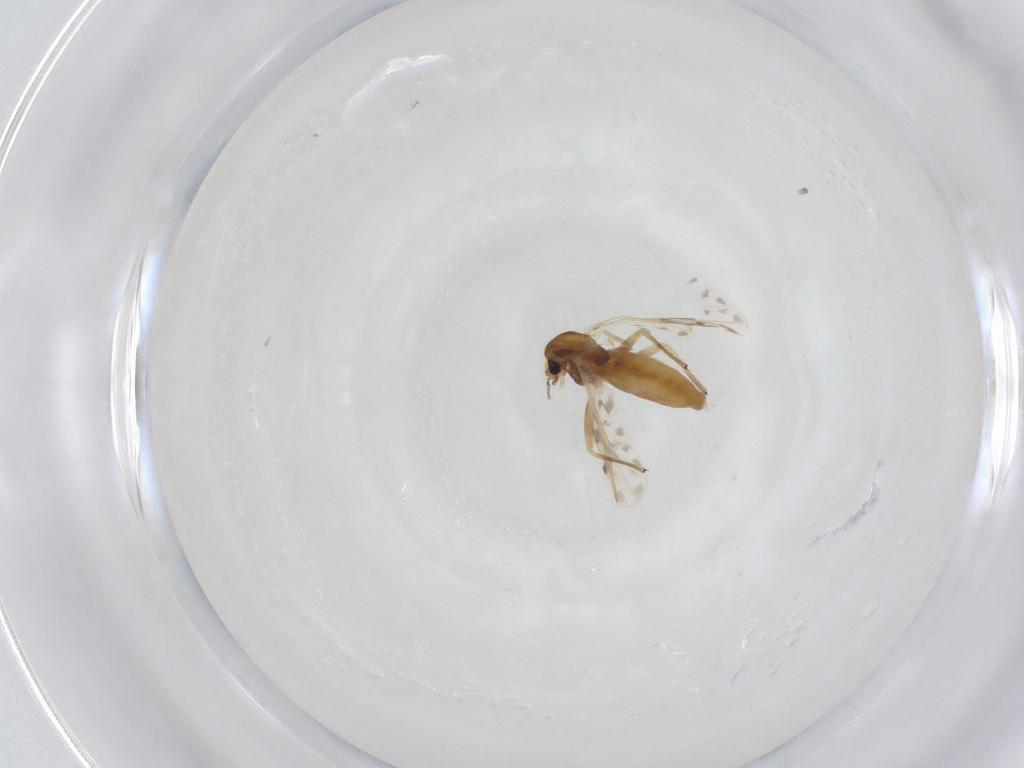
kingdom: Animalia
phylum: Arthropoda
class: Insecta
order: Diptera
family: Chironomidae
